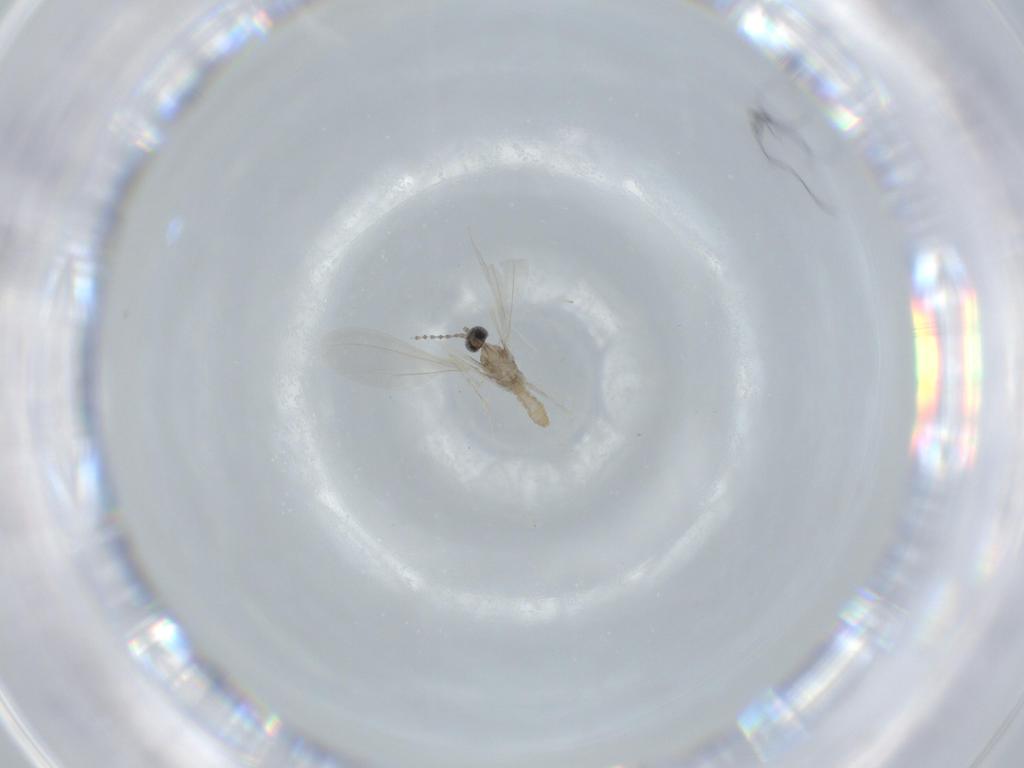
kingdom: Animalia
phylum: Arthropoda
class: Insecta
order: Diptera
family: Cecidomyiidae
